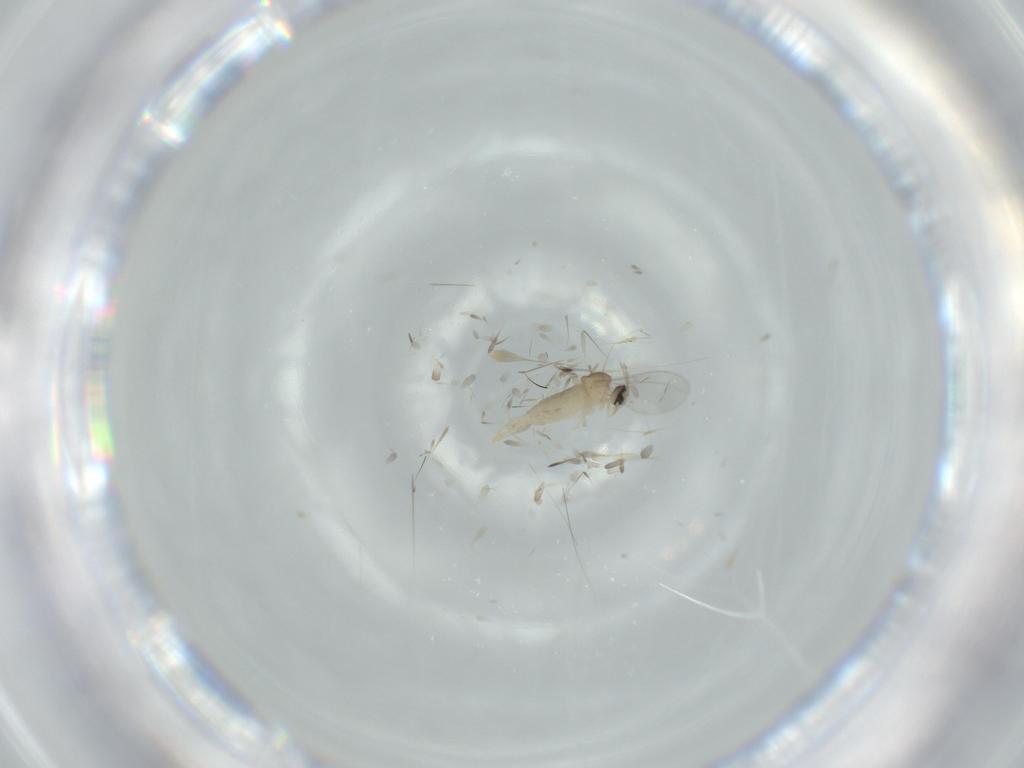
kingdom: Animalia
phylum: Arthropoda
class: Insecta
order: Diptera
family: Cecidomyiidae
